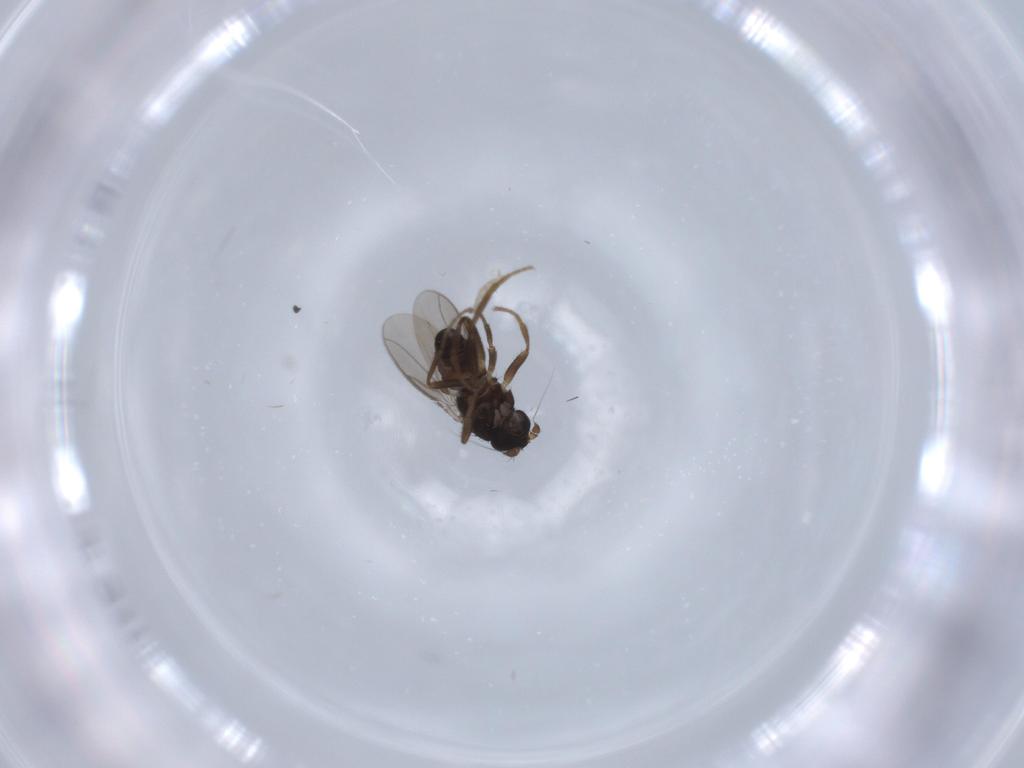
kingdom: Animalia
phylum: Arthropoda
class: Insecta
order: Diptera
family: Sphaeroceridae
